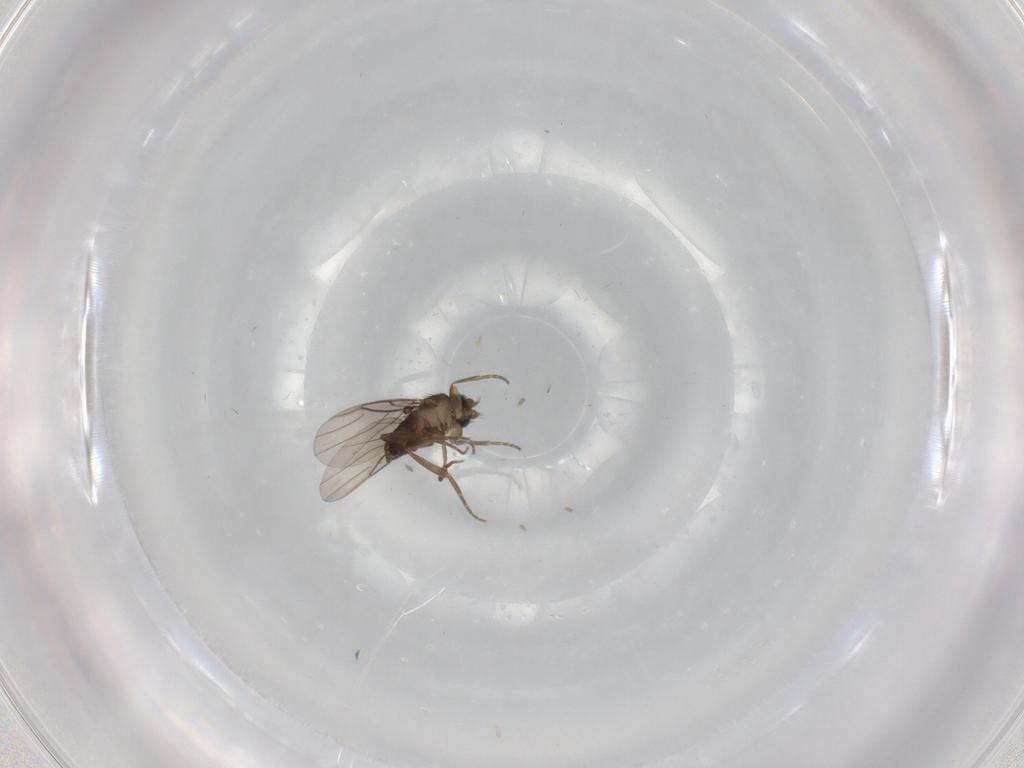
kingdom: Animalia
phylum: Arthropoda
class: Insecta
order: Diptera
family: Phoridae
